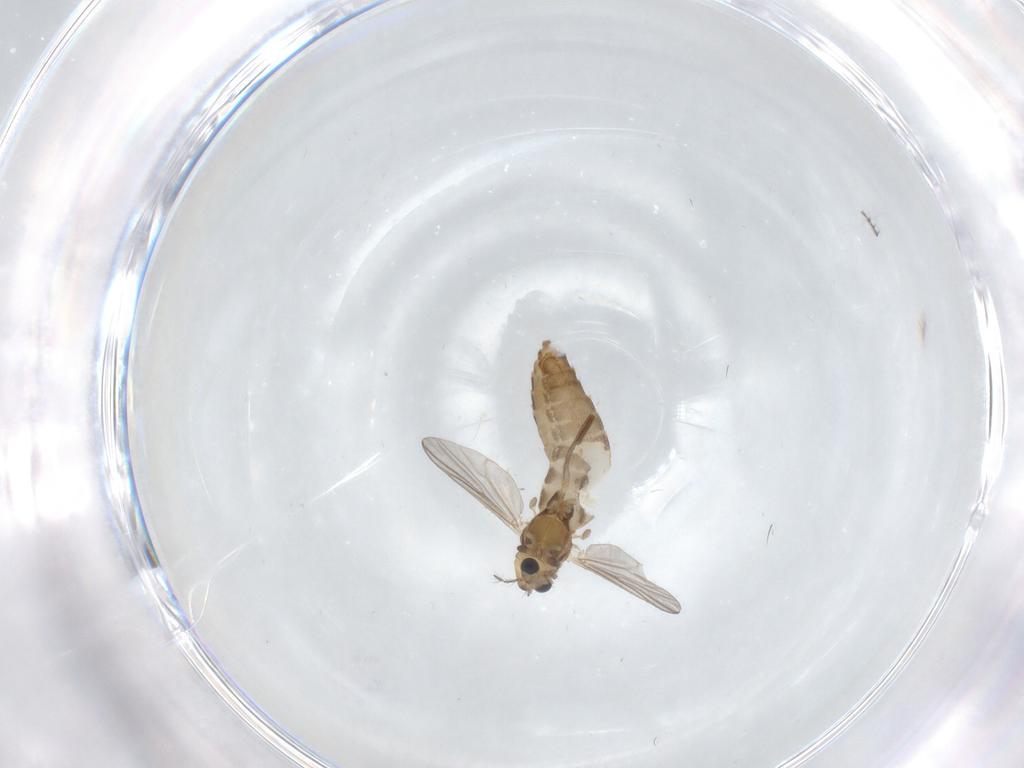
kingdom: Animalia
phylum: Arthropoda
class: Insecta
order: Diptera
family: Chironomidae
